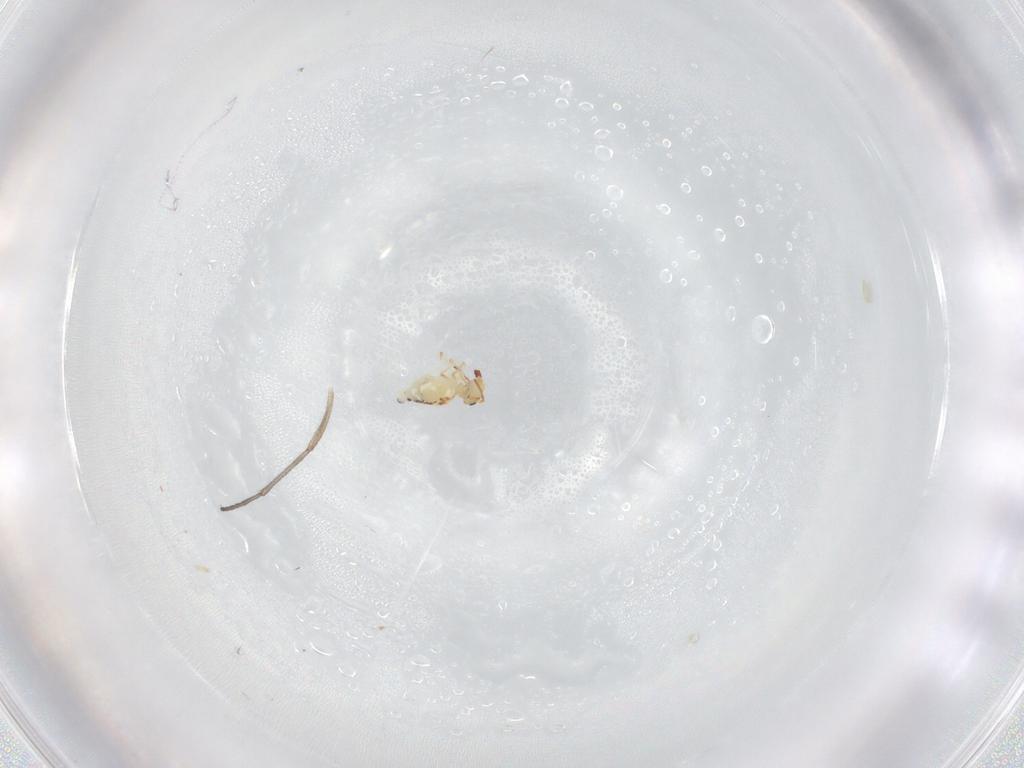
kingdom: Animalia
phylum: Arthropoda
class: Collembola
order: Symphypleona
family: Bourletiellidae
